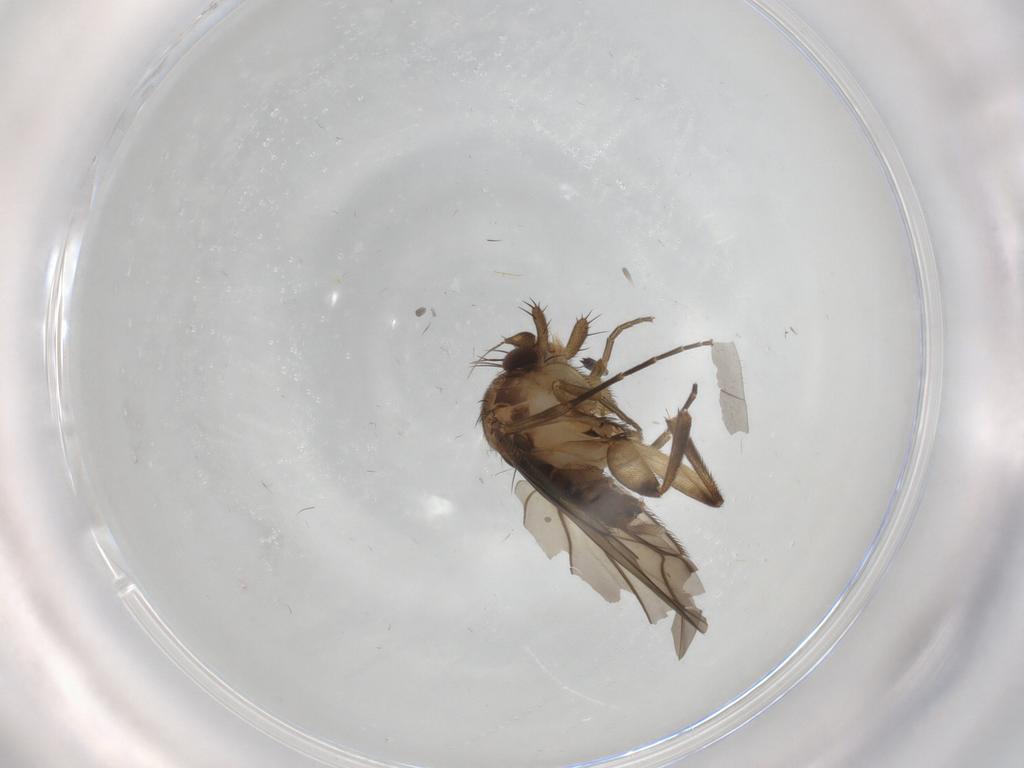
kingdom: Animalia
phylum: Arthropoda
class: Insecta
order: Diptera
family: Phoridae
